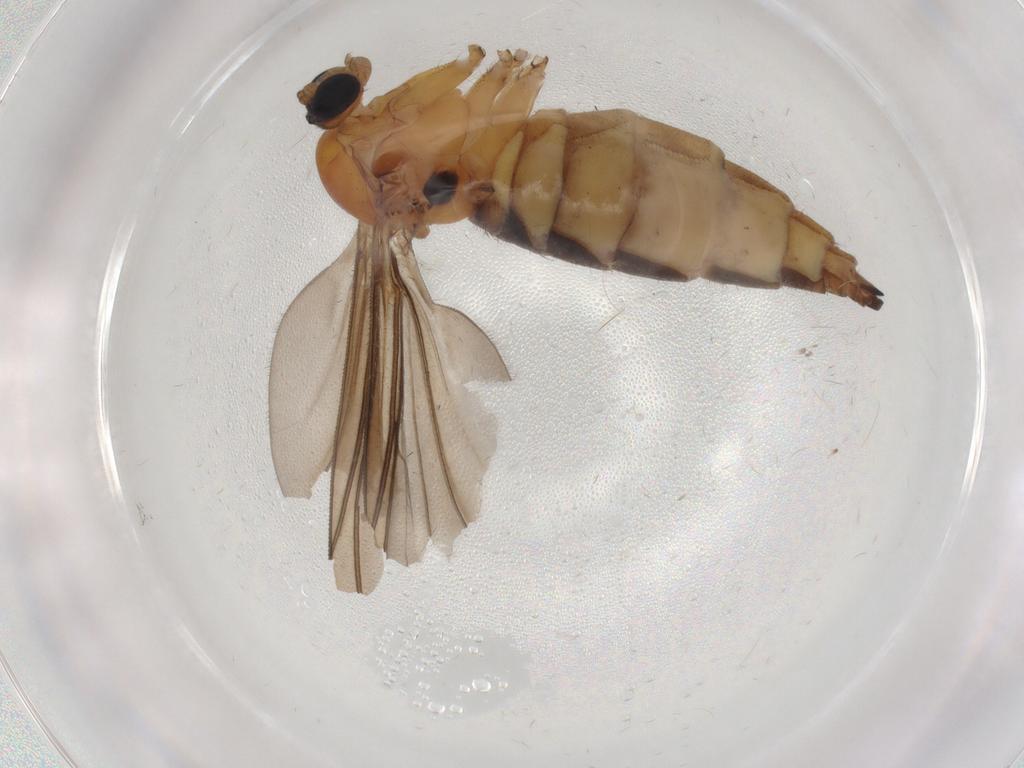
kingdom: Animalia
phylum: Arthropoda
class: Insecta
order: Diptera
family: Sciaridae
